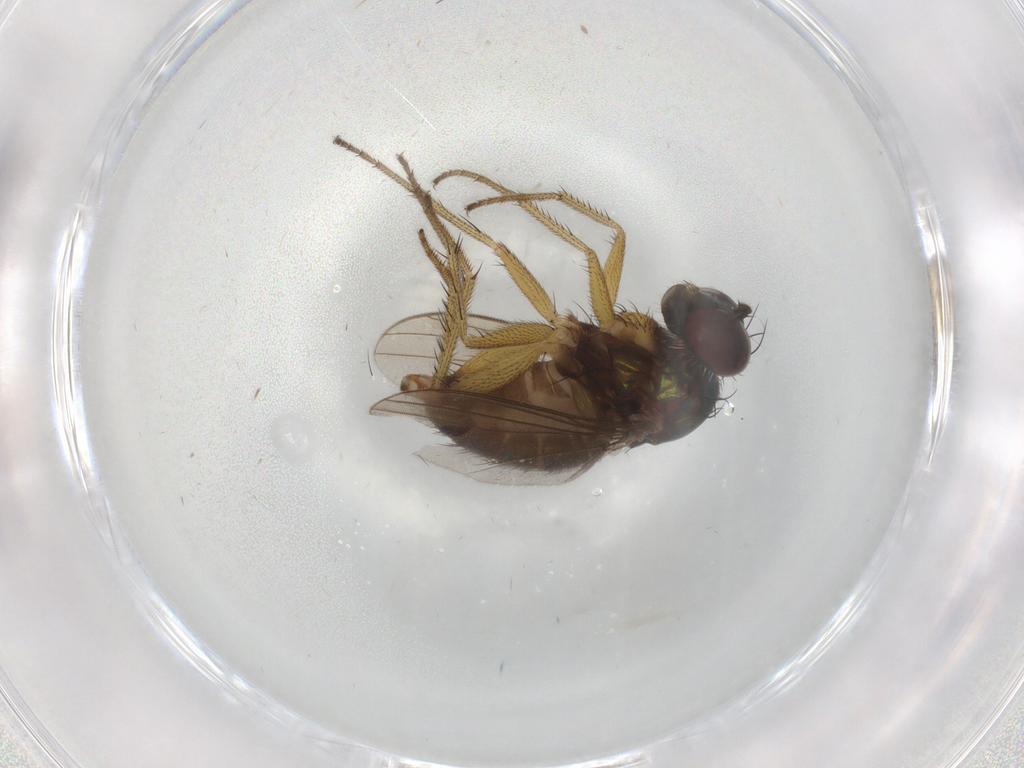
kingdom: Animalia
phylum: Arthropoda
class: Insecta
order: Diptera
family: Dolichopodidae
